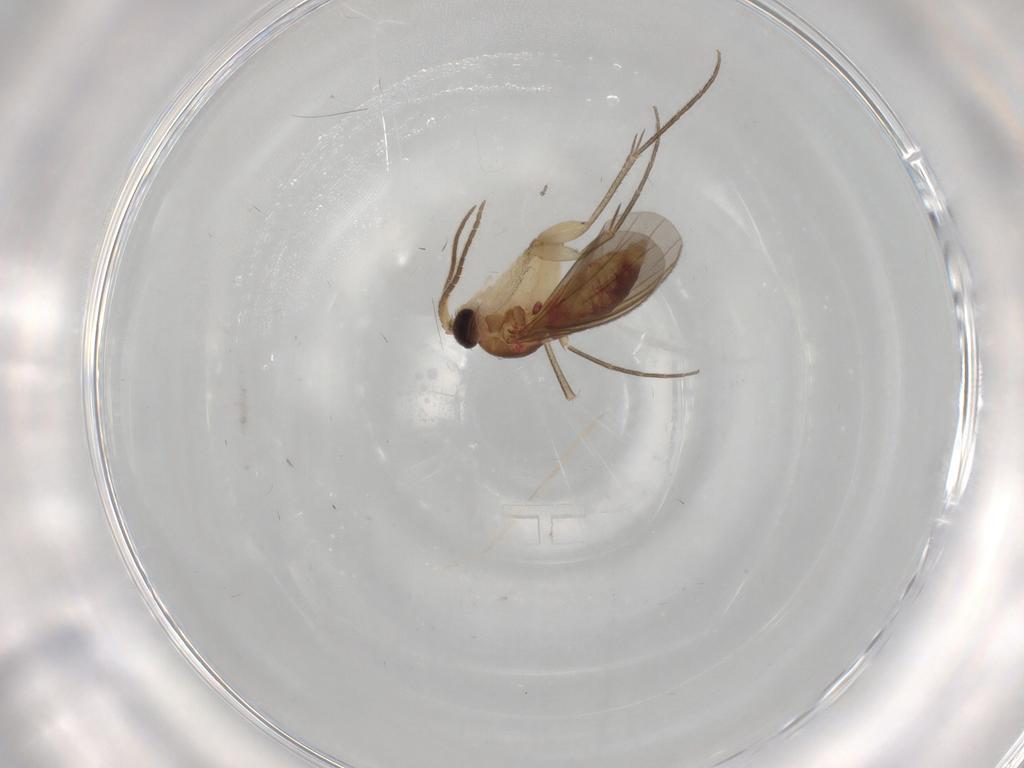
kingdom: Animalia
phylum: Arthropoda
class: Insecta
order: Diptera
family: Mycetophilidae
